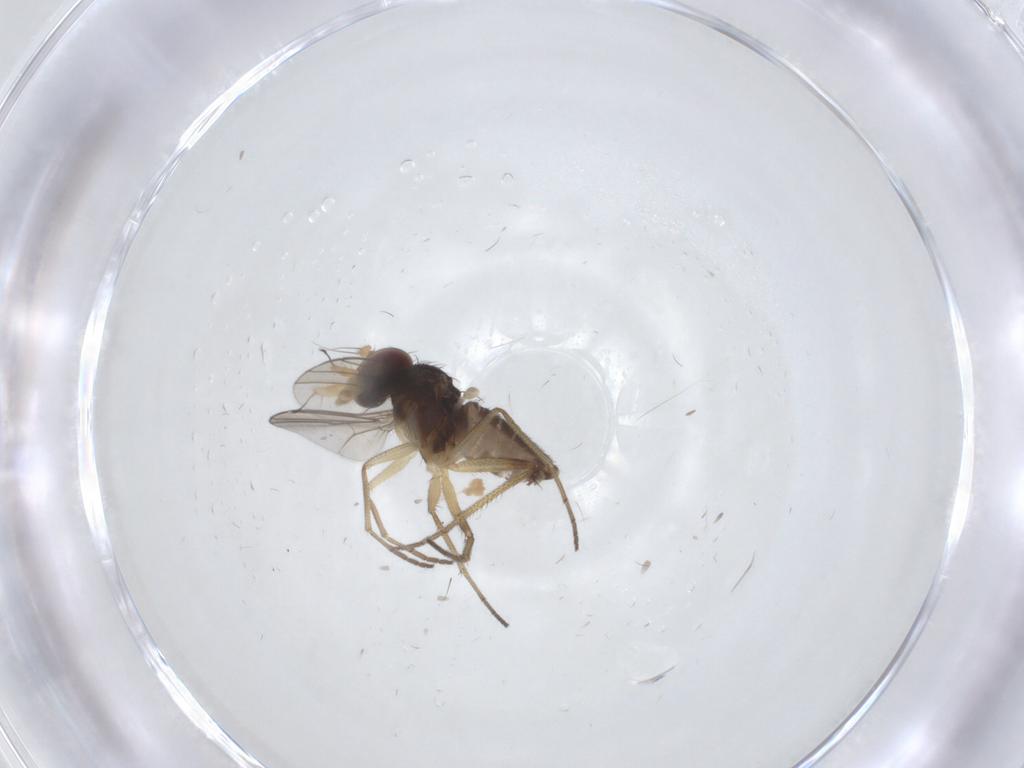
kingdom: Animalia
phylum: Arthropoda
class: Insecta
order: Diptera
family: Dolichopodidae
